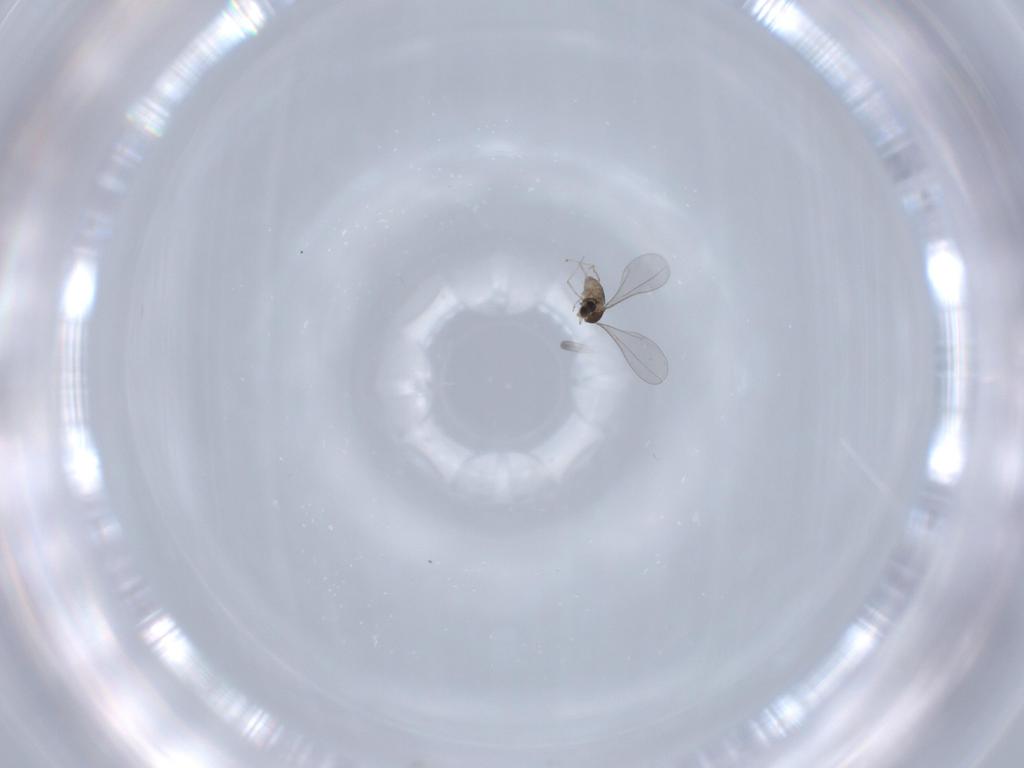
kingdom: Animalia
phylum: Arthropoda
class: Insecta
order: Diptera
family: Cecidomyiidae
